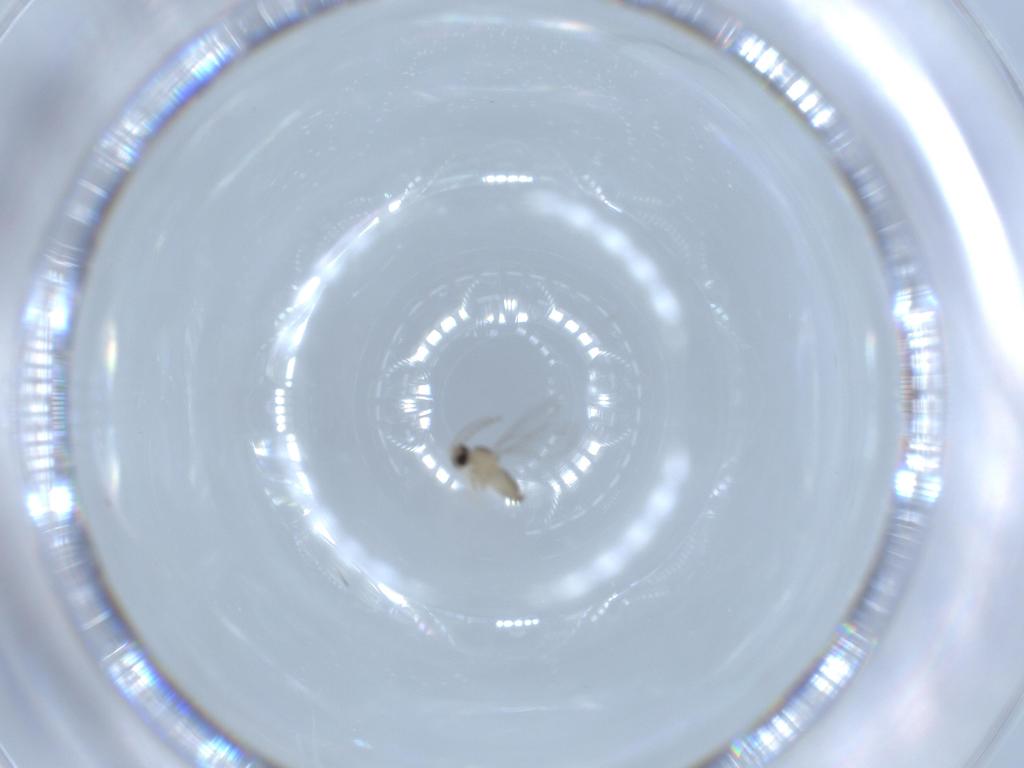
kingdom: Animalia
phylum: Arthropoda
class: Insecta
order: Diptera
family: Cecidomyiidae
